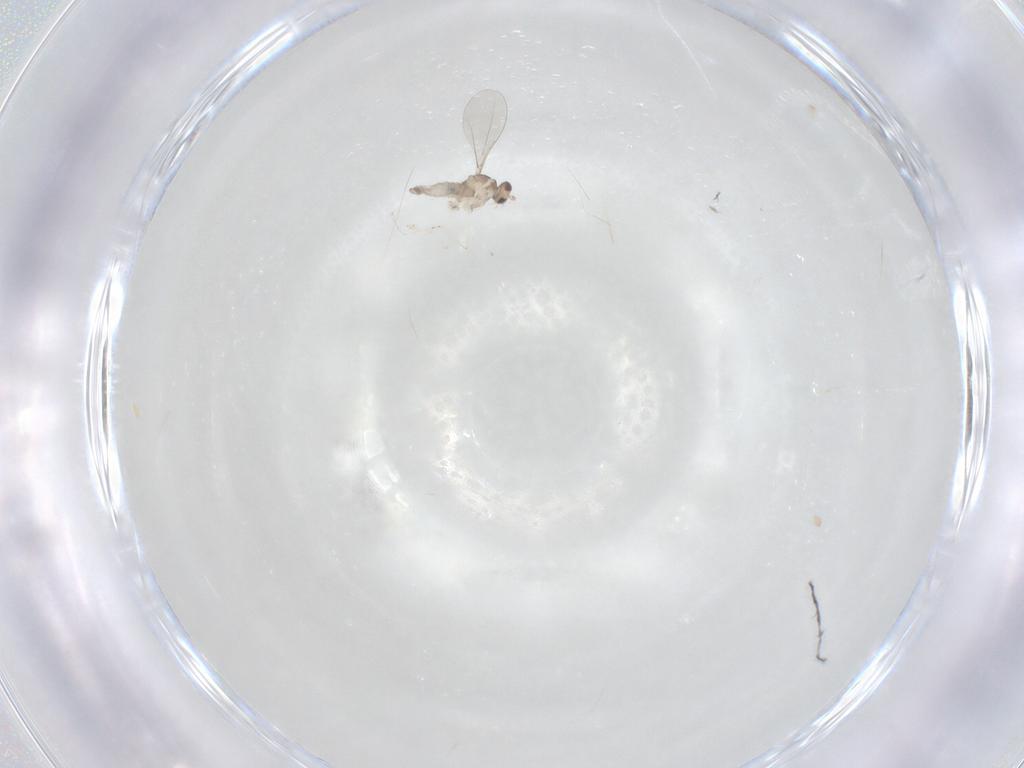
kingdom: Animalia
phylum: Arthropoda
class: Insecta
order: Diptera
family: Cecidomyiidae
